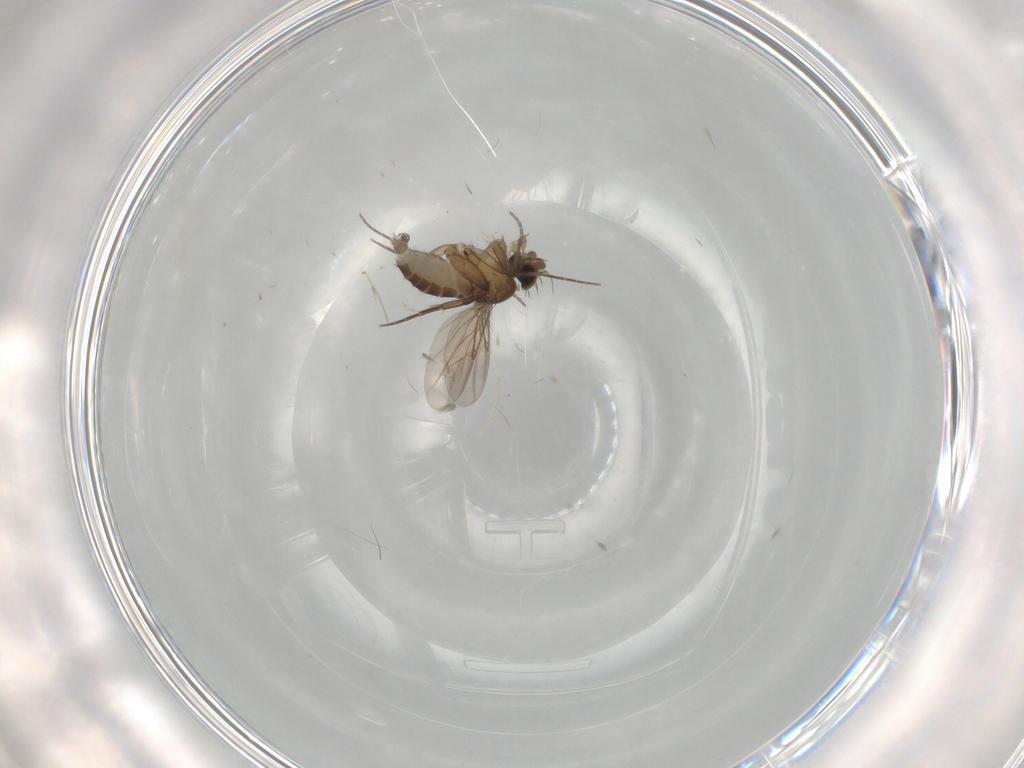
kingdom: Animalia
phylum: Arthropoda
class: Insecta
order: Diptera
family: Phoridae
